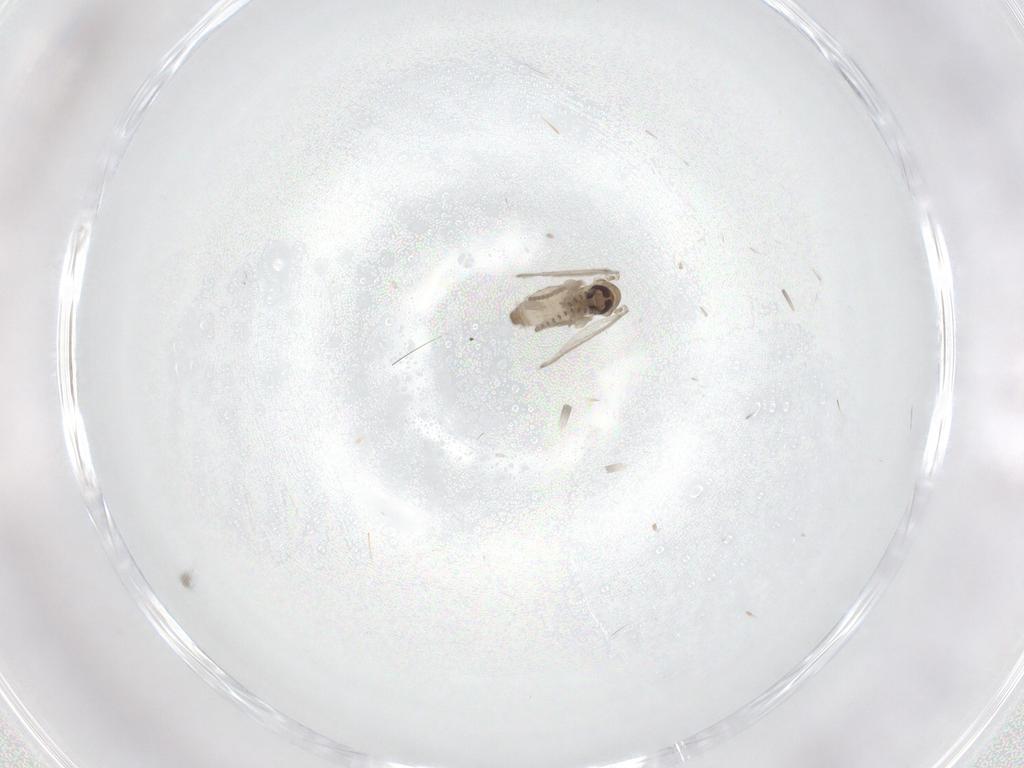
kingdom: Animalia
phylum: Arthropoda
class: Insecta
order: Diptera
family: Psychodidae
